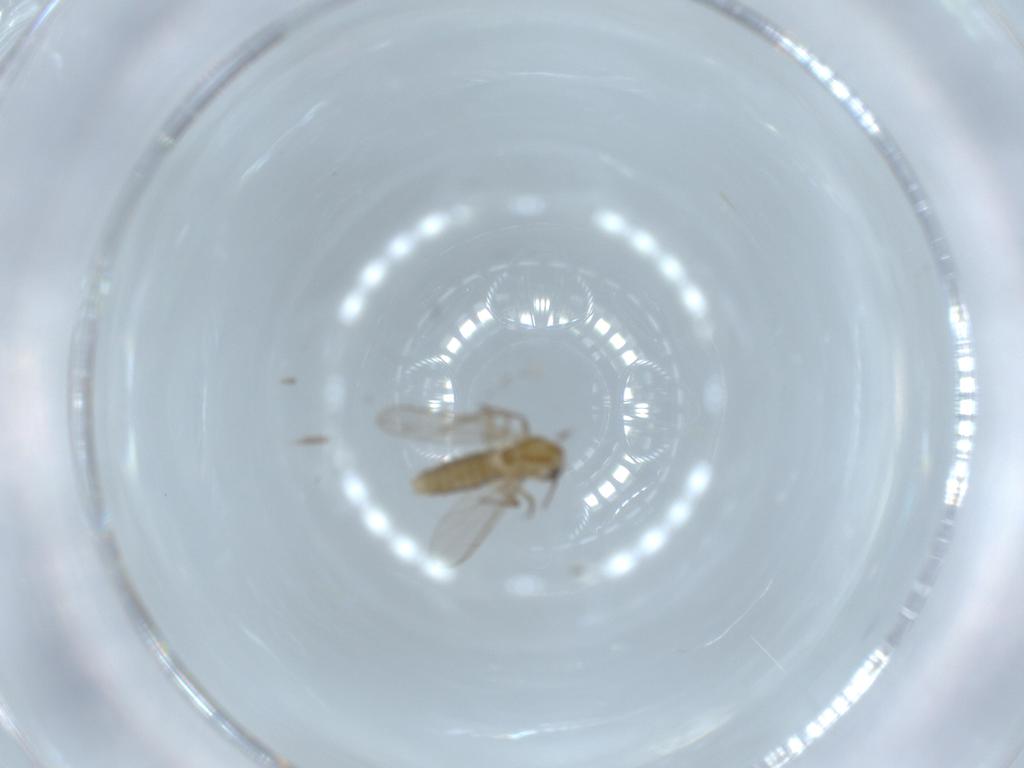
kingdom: Animalia
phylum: Arthropoda
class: Insecta
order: Diptera
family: Chironomidae
